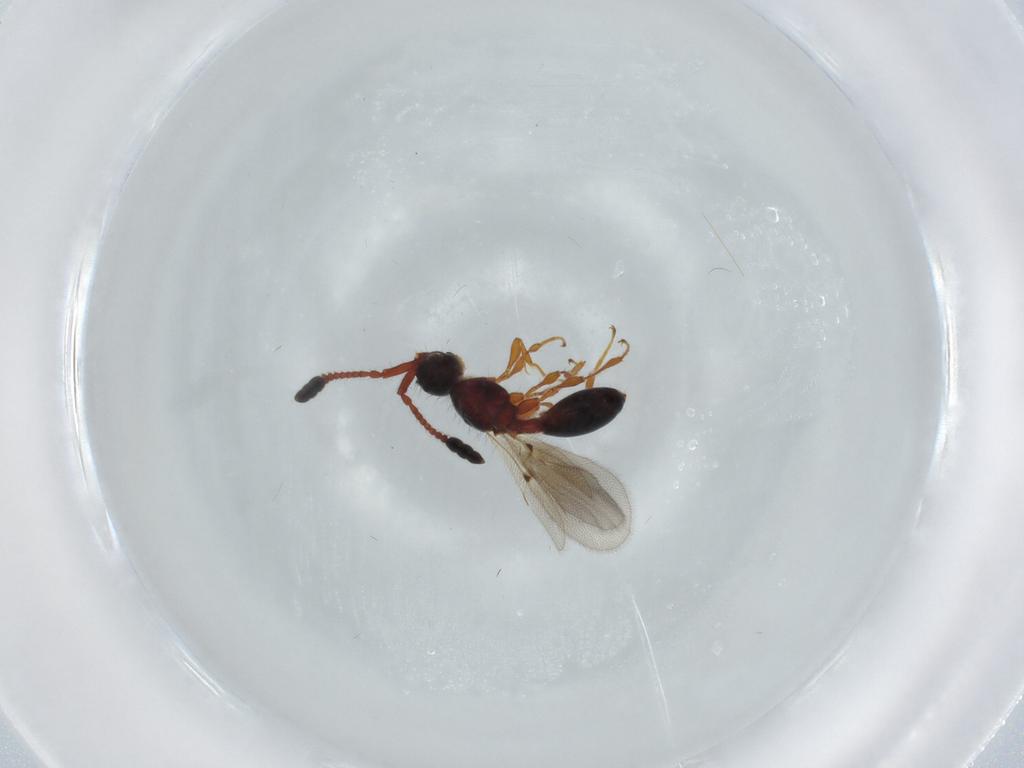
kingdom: Animalia
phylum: Arthropoda
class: Insecta
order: Hymenoptera
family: Diapriidae
